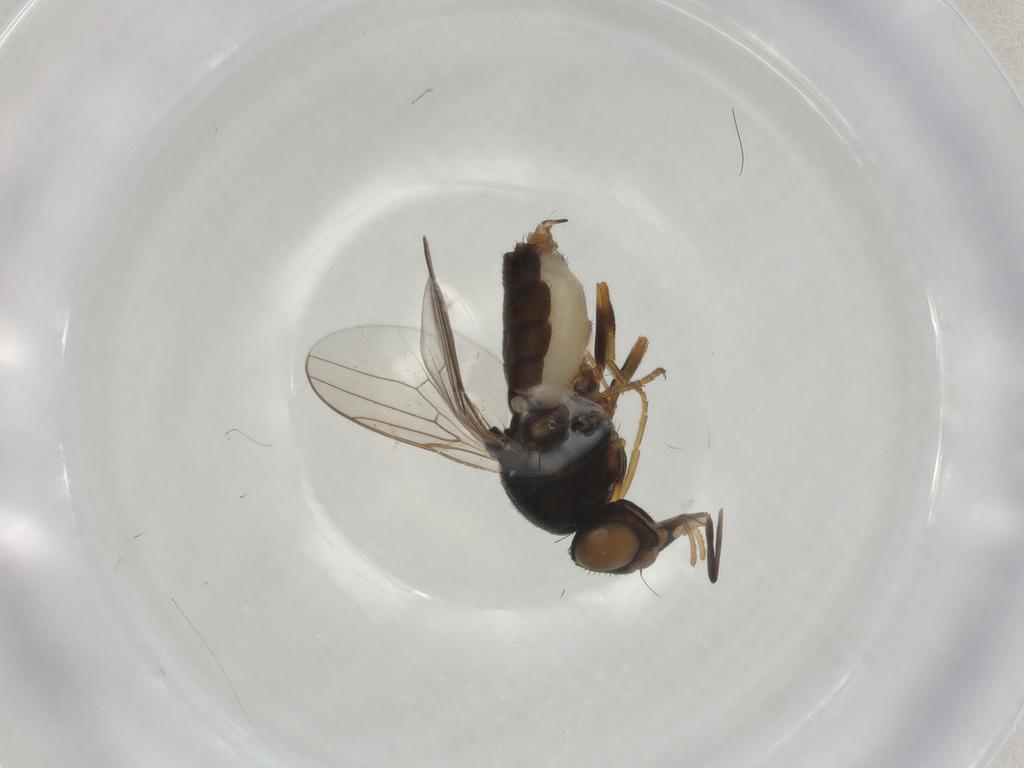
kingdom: Animalia
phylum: Arthropoda
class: Insecta
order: Diptera
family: Chloropidae
